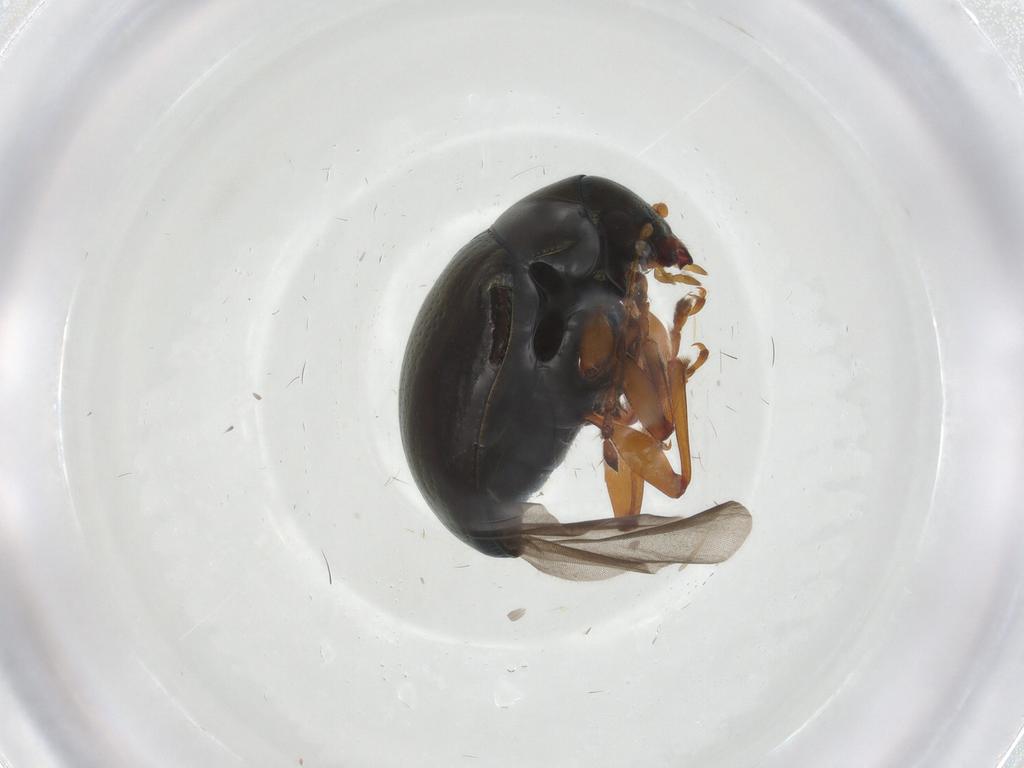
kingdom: Animalia
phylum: Arthropoda
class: Insecta
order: Coleoptera
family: Chrysomelidae
